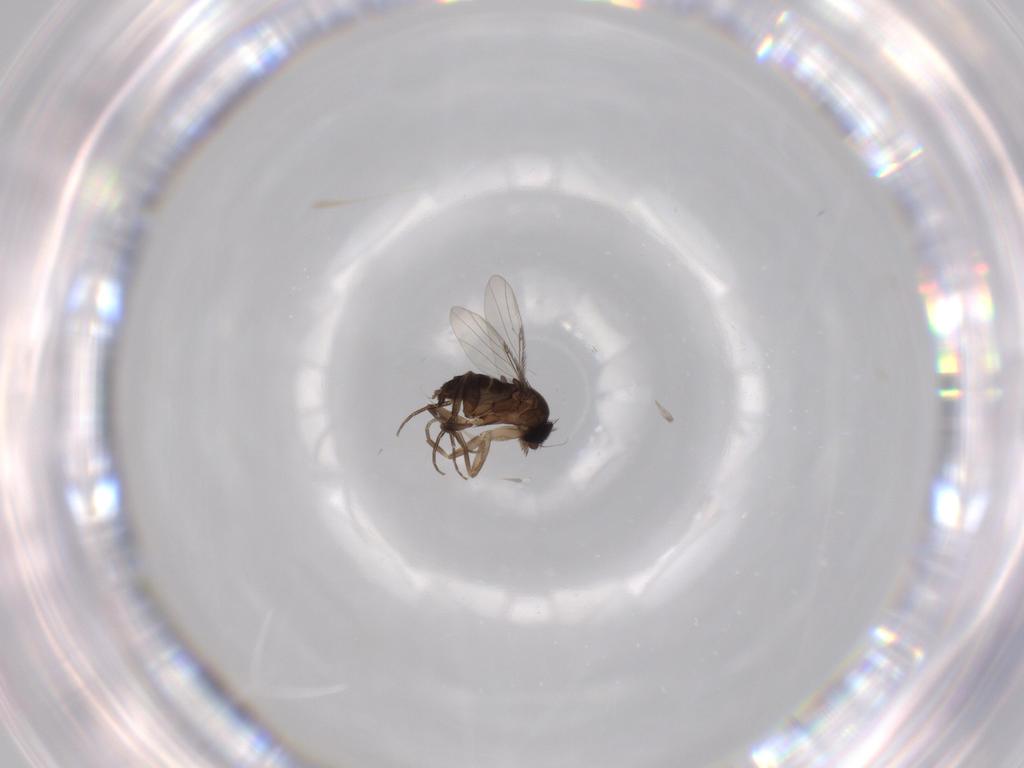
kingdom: Animalia
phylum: Arthropoda
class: Insecta
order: Diptera
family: Phoridae
